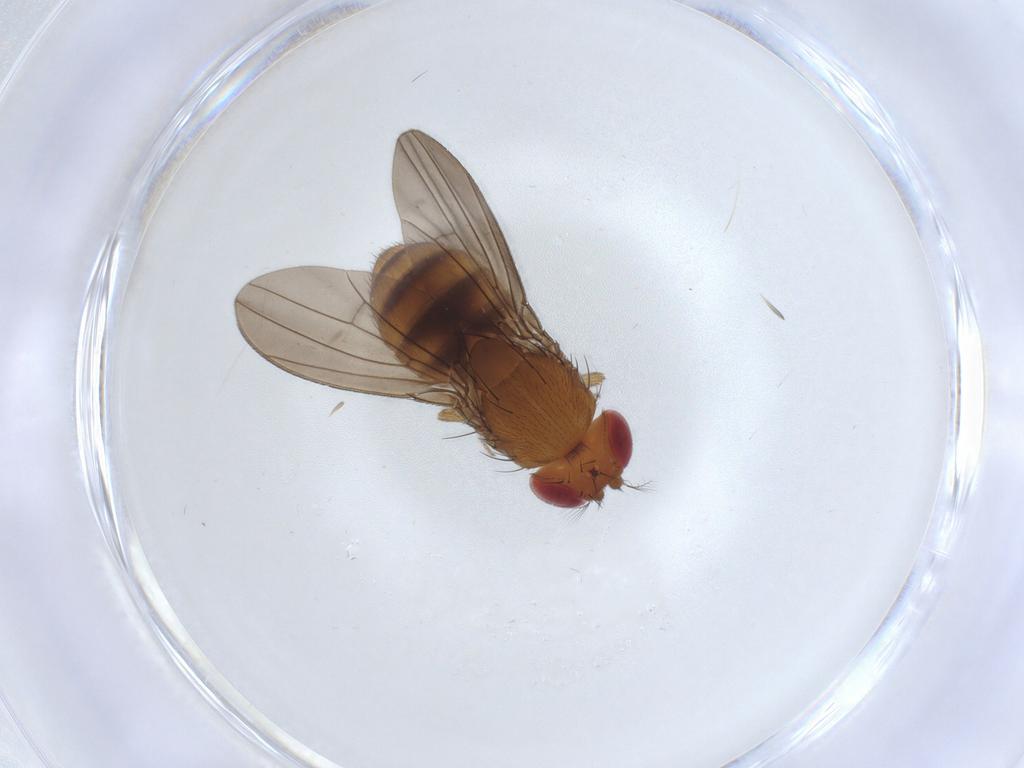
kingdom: Animalia
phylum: Arthropoda
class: Insecta
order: Diptera
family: Drosophilidae
